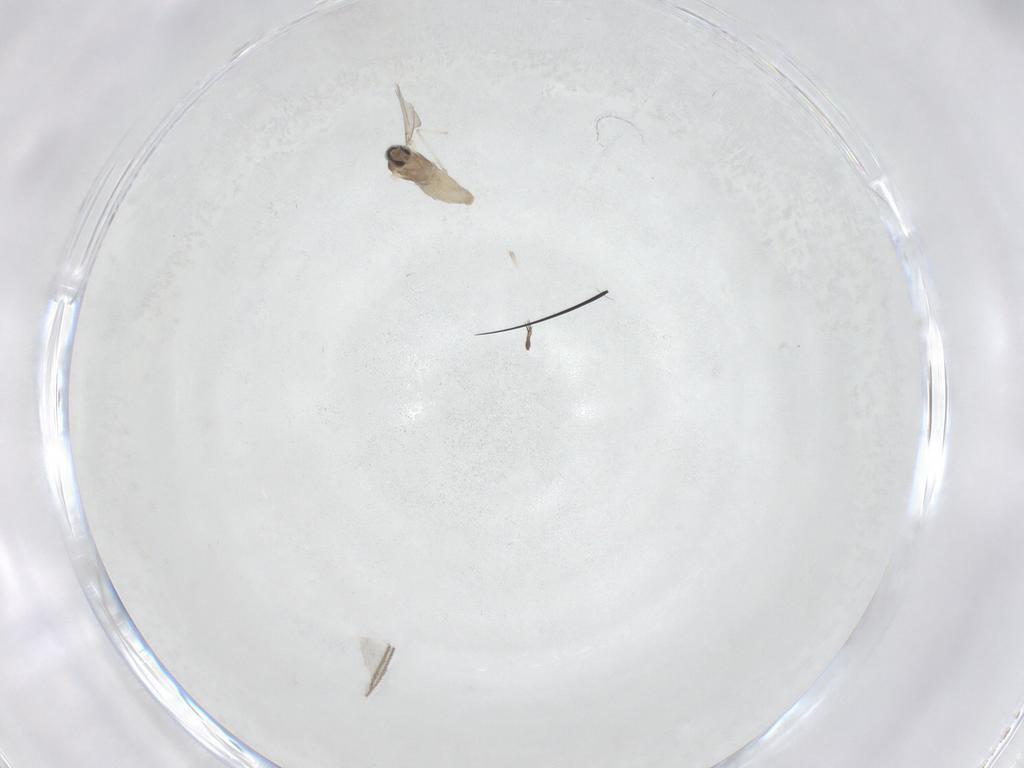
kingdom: Animalia
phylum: Arthropoda
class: Insecta
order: Diptera
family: Cecidomyiidae
